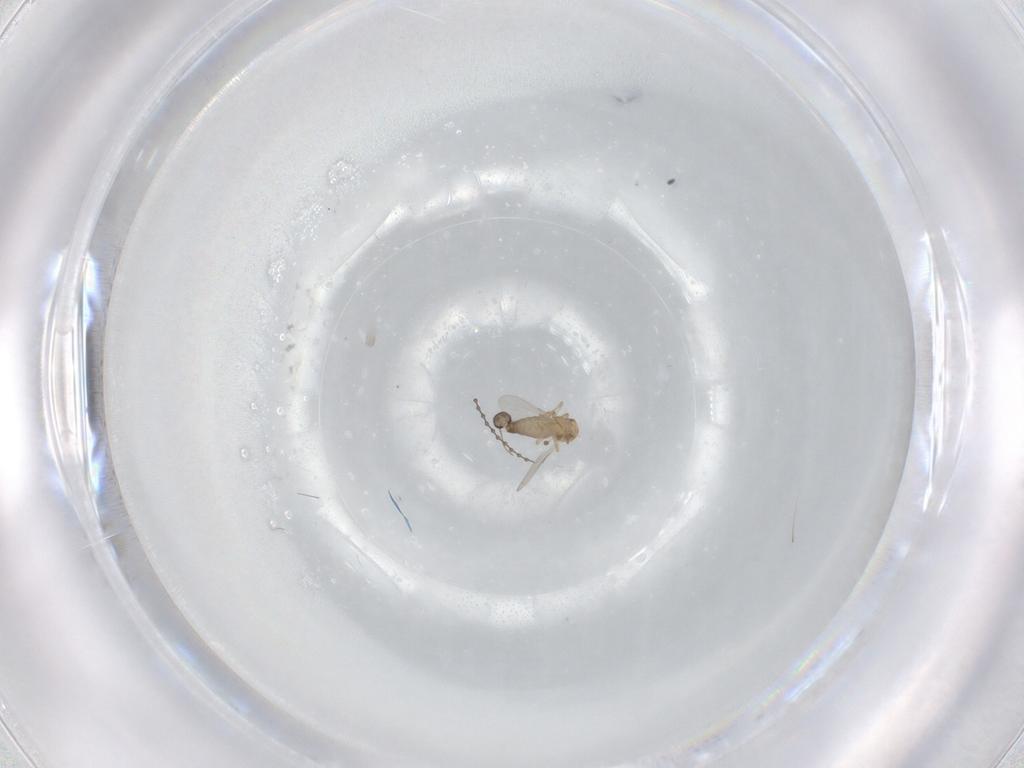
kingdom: Animalia
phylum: Arthropoda
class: Insecta
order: Diptera
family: Ceratopogonidae
